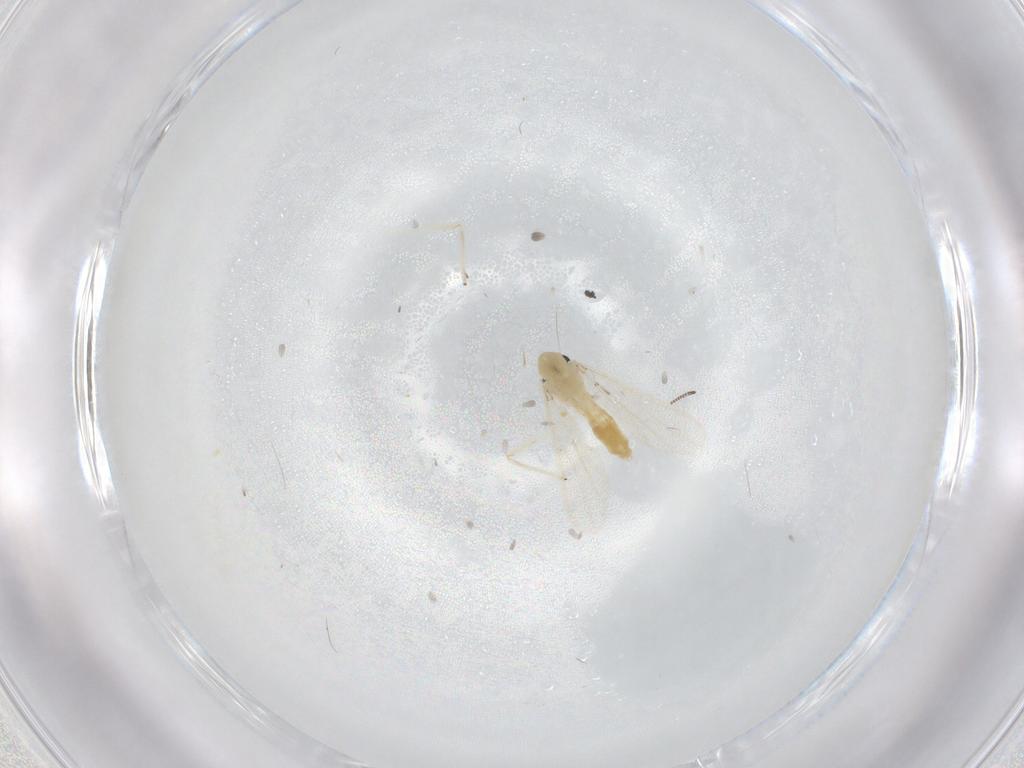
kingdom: Animalia
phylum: Arthropoda
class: Insecta
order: Diptera
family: Chironomidae
